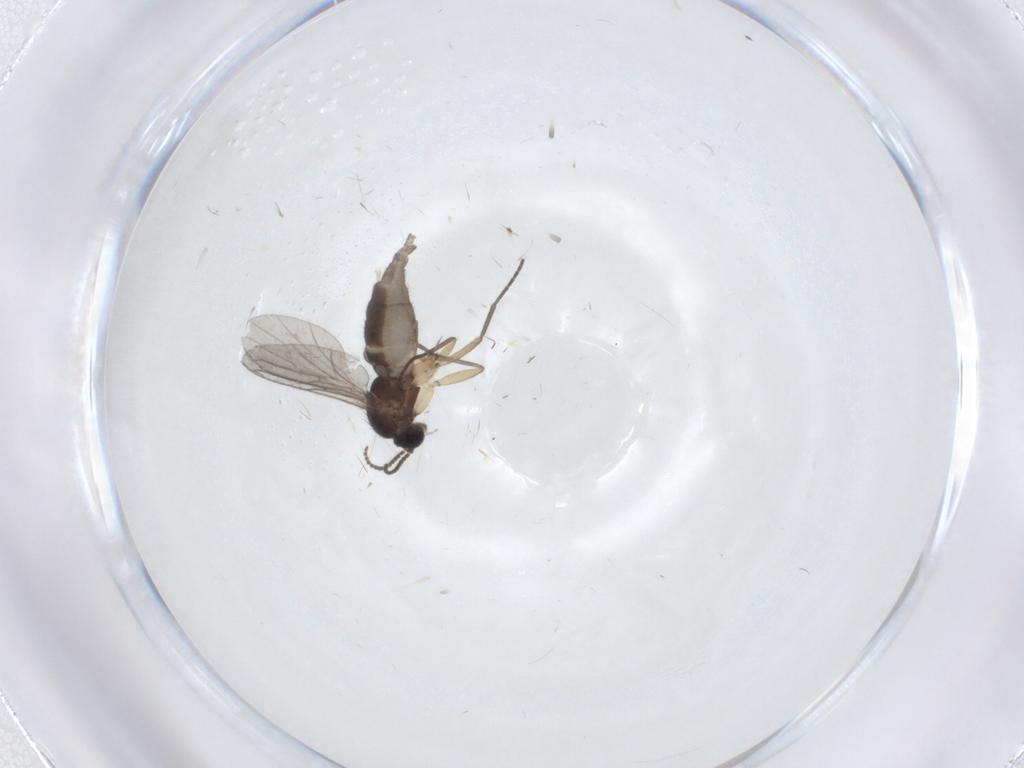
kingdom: Animalia
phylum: Arthropoda
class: Insecta
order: Diptera
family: Sciaridae
